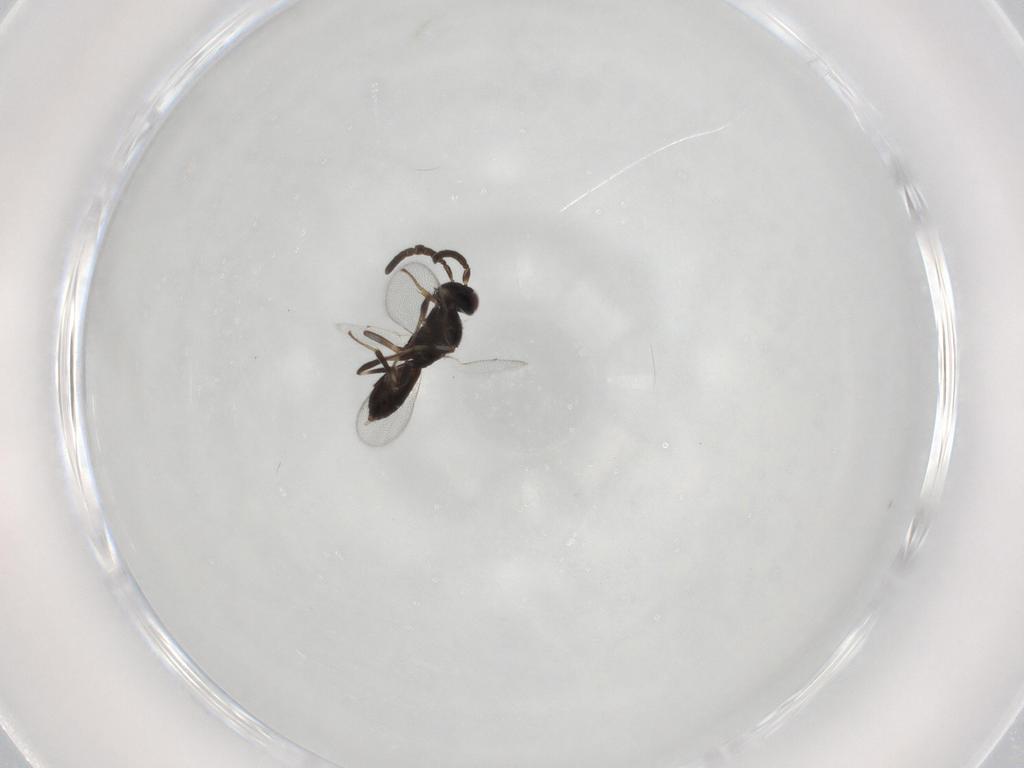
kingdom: Animalia
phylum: Arthropoda
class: Insecta
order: Hymenoptera
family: Eupelmidae
